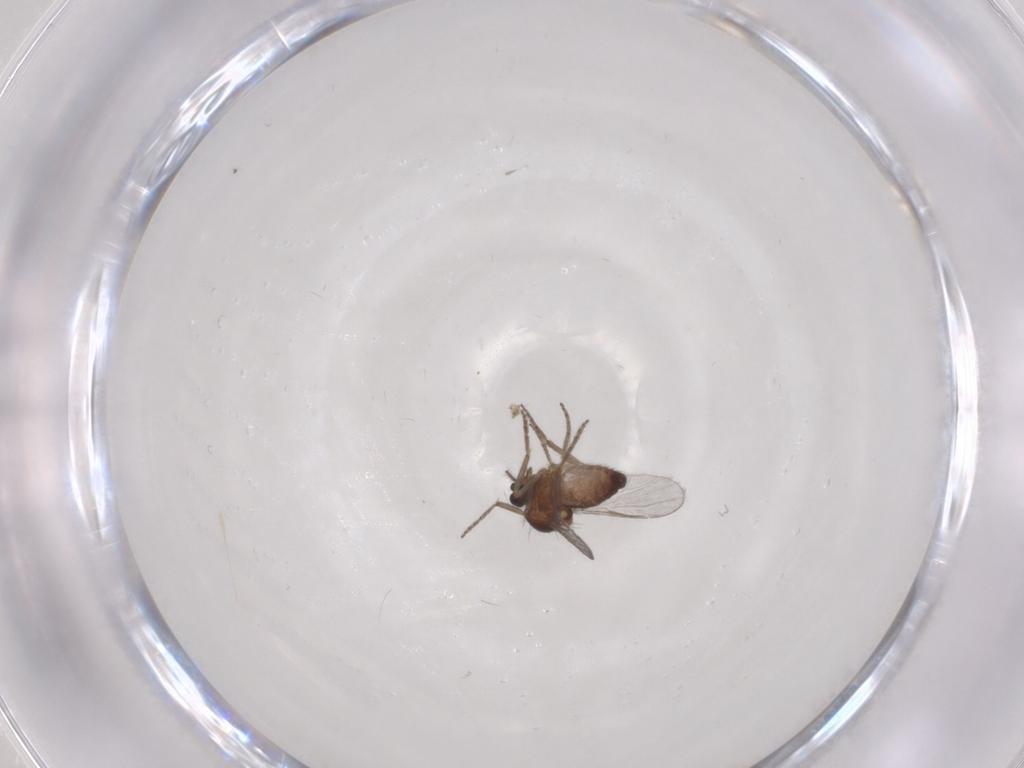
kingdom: Animalia
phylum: Arthropoda
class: Insecta
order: Diptera
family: Ceratopogonidae
